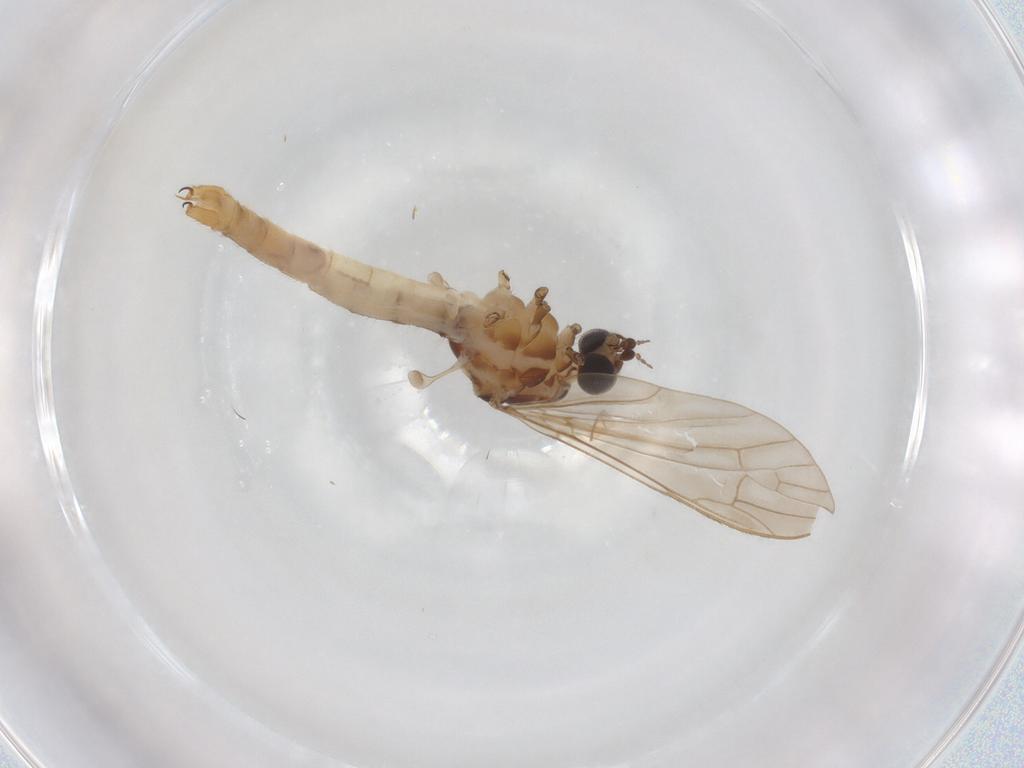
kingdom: Animalia
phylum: Arthropoda
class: Insecta
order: Diptera
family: Limoniidae
